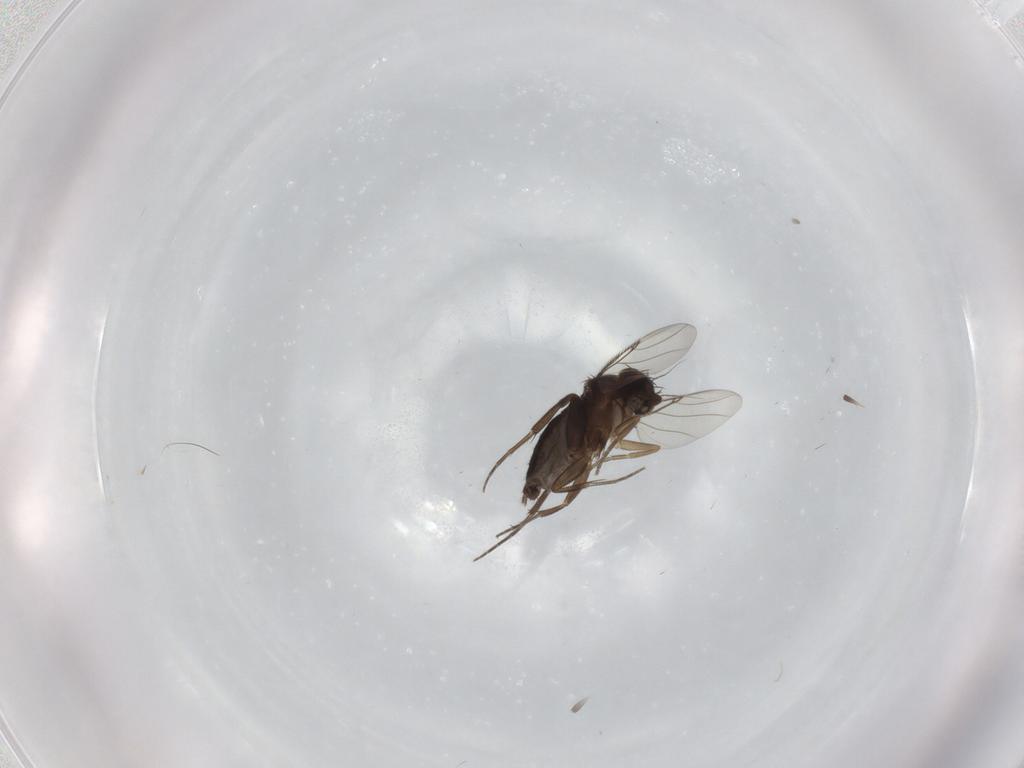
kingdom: Animalia
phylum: Arthropoda
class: Insecta
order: Diptera
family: Phoridae
